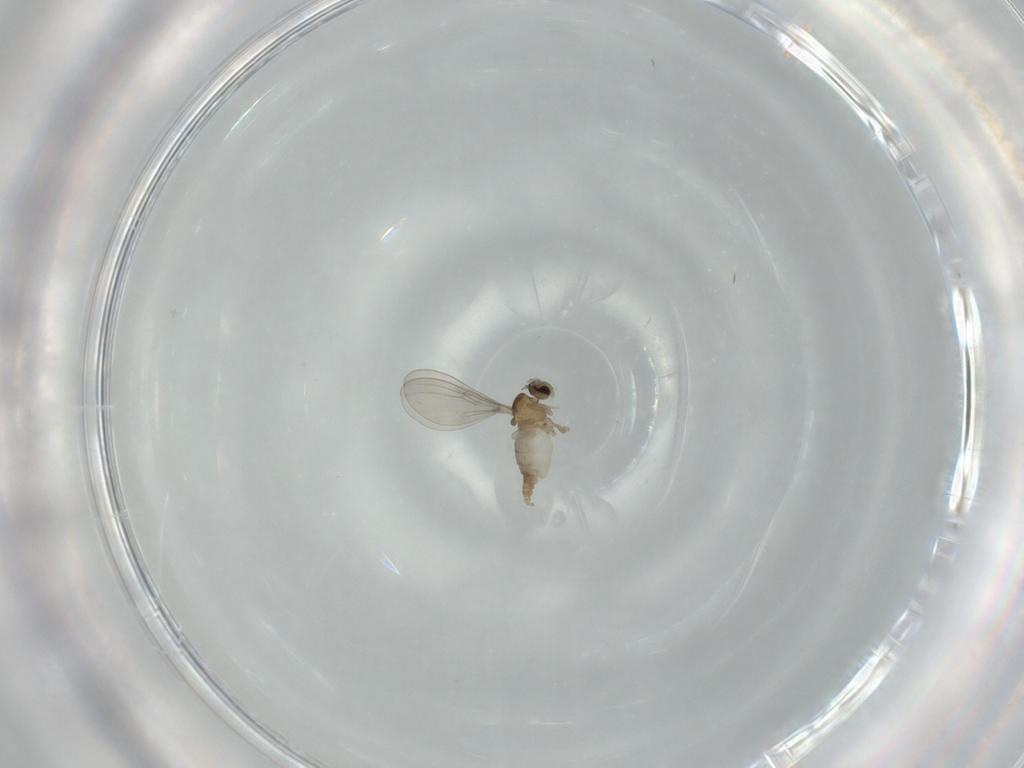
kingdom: Animalia
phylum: Arthropoda
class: Insecta
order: Diptera
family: Cecidomyiidae
